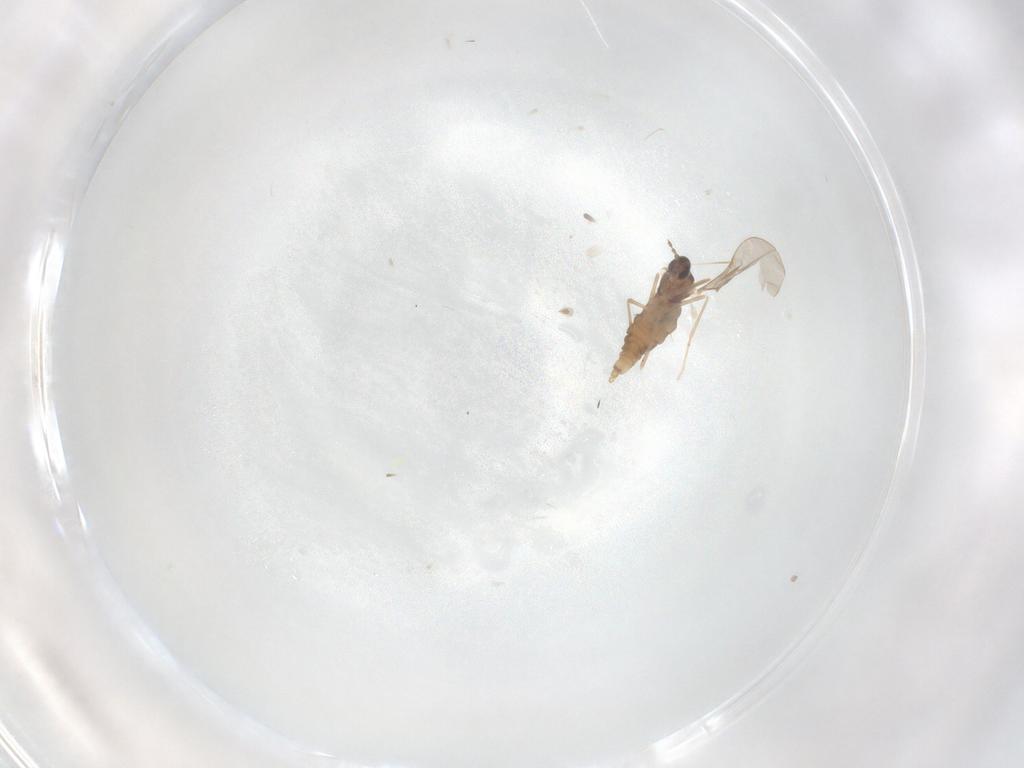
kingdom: Animalia
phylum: Arthropoda
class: Insecta
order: Diptera
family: Cecidomyiidae
